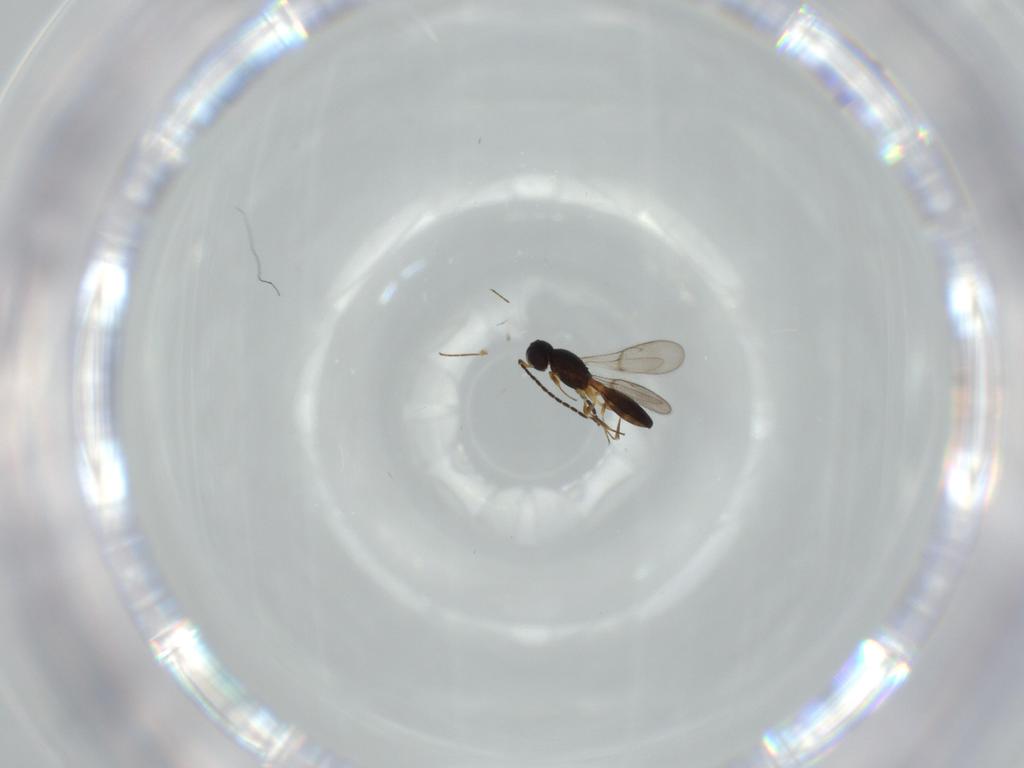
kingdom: Animalia
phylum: Arthropoda
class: Insecta
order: Hymenoptera
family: Scelionidae
